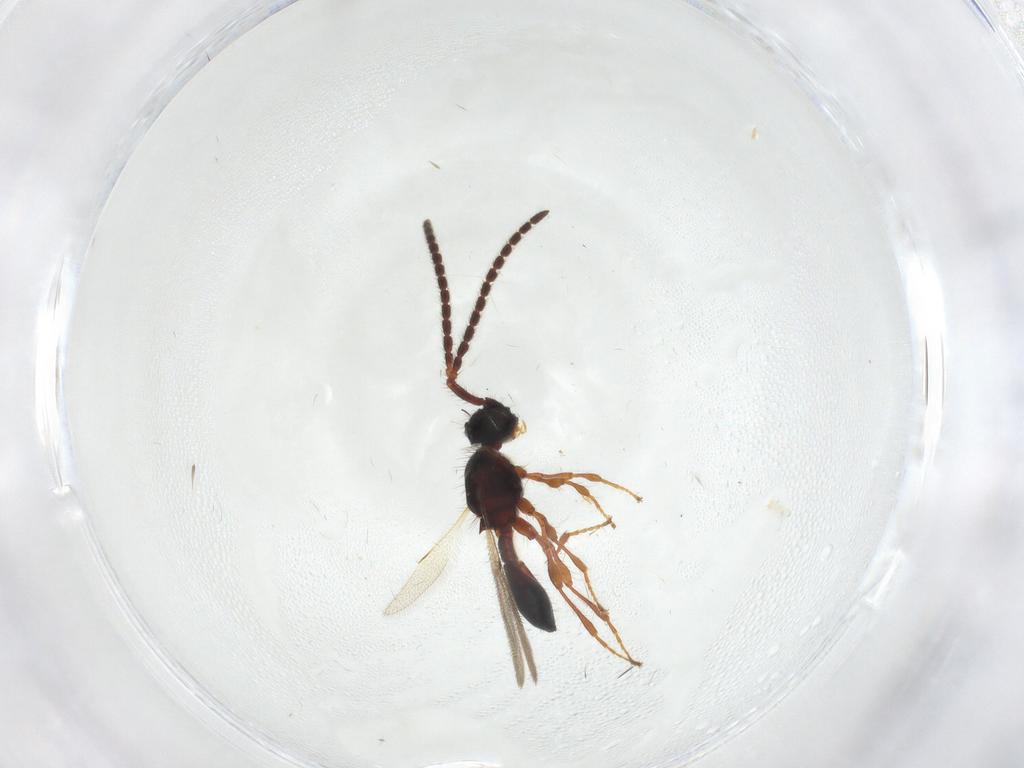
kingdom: Animalia
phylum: Arthropoda
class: Insecta
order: Hymenoptera
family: Diapriidae
